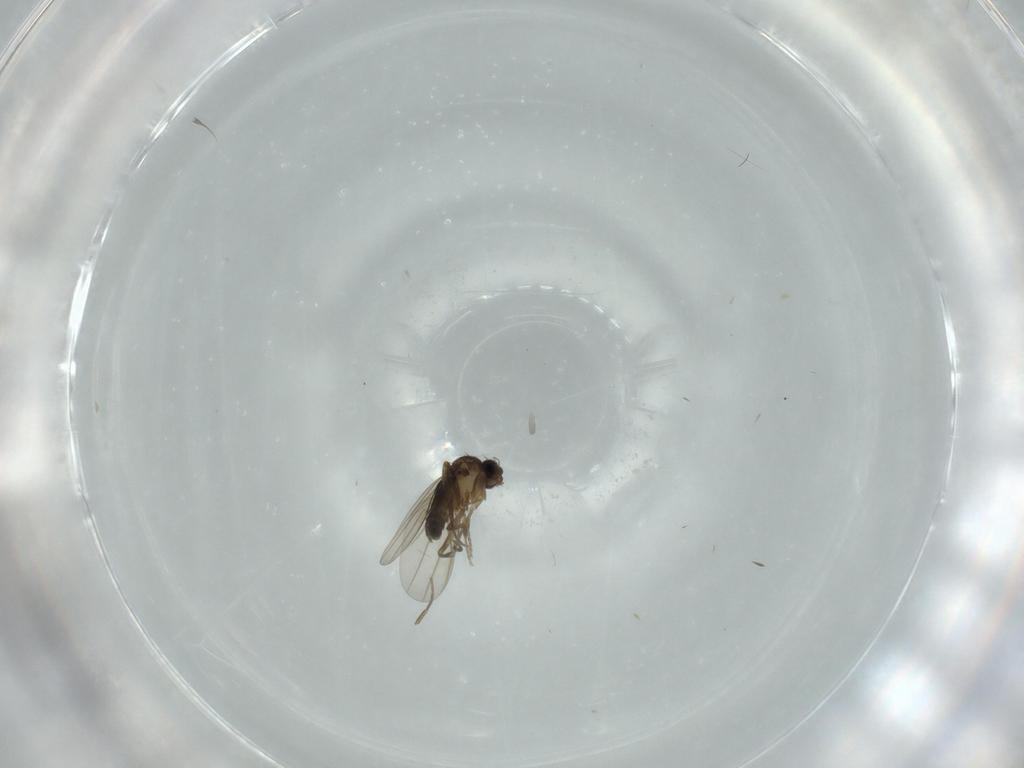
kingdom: Animalia
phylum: Arthropoda
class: Insecta
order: Diptera
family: Phoridae
